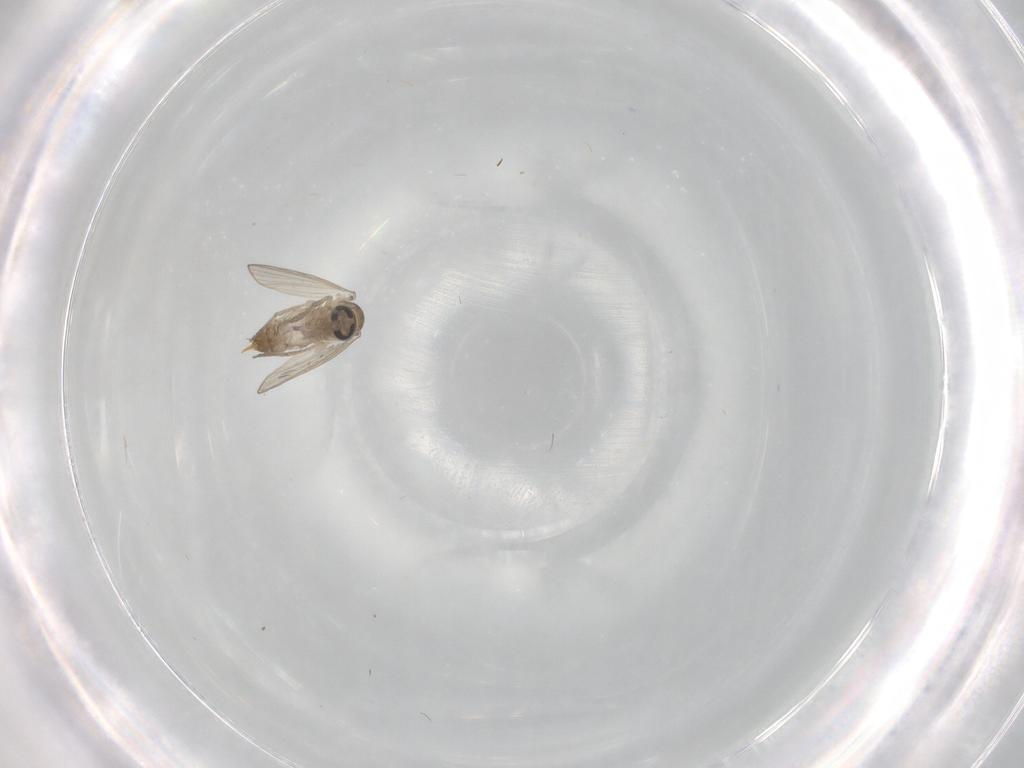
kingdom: Animalia
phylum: Arthropoda
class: Insecta
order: Diptera
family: Psychodidae
